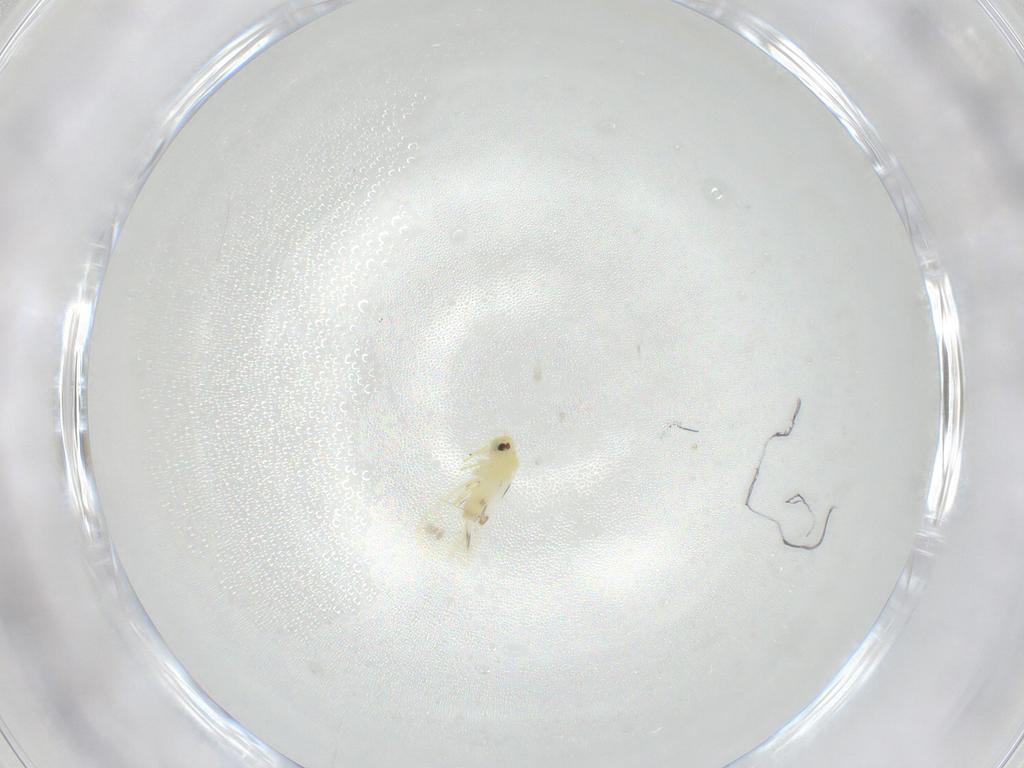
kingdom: Animalia
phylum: Arthropoda
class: Insecta
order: Hemiptera
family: Aleyrodidae
